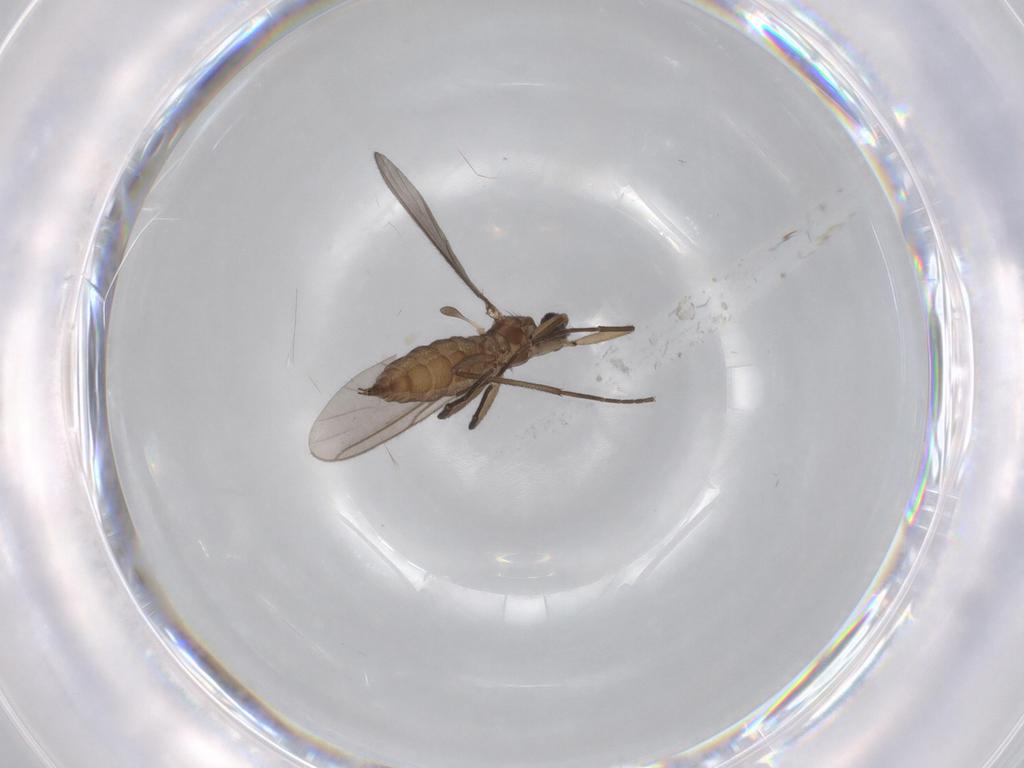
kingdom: Animalia
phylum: Arthropoda
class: Insecta
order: Diptera
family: Sciaridae
